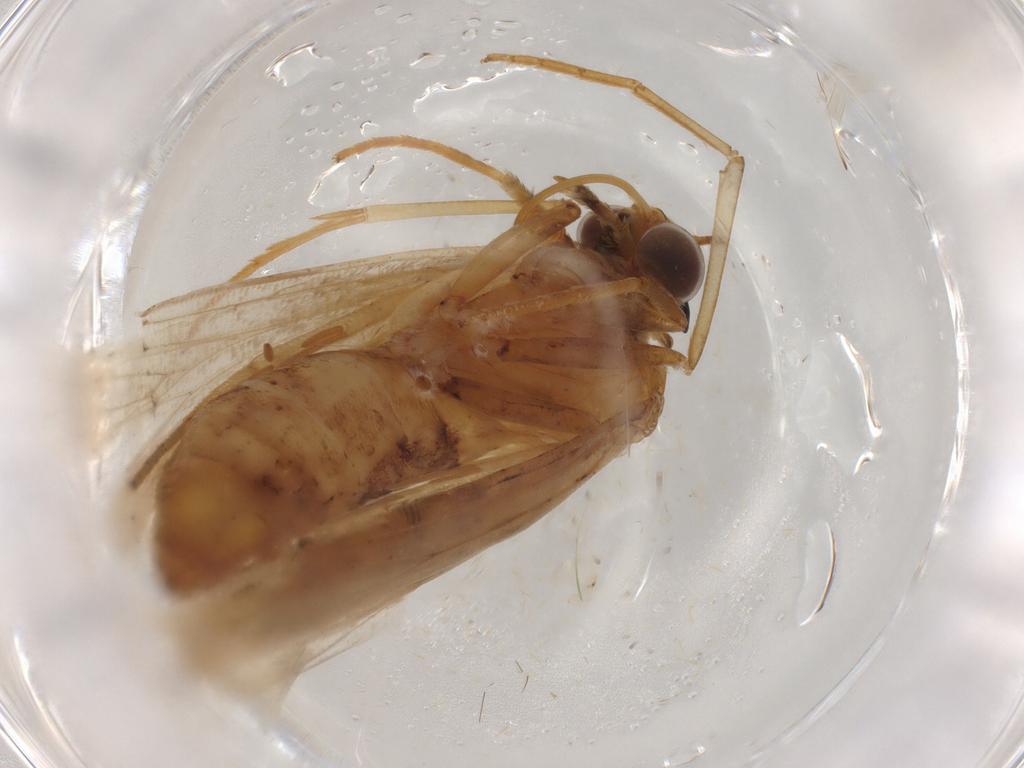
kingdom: Animalia
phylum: Arthropoda
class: Insecta
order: Lepidoptera
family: Pyralidae
